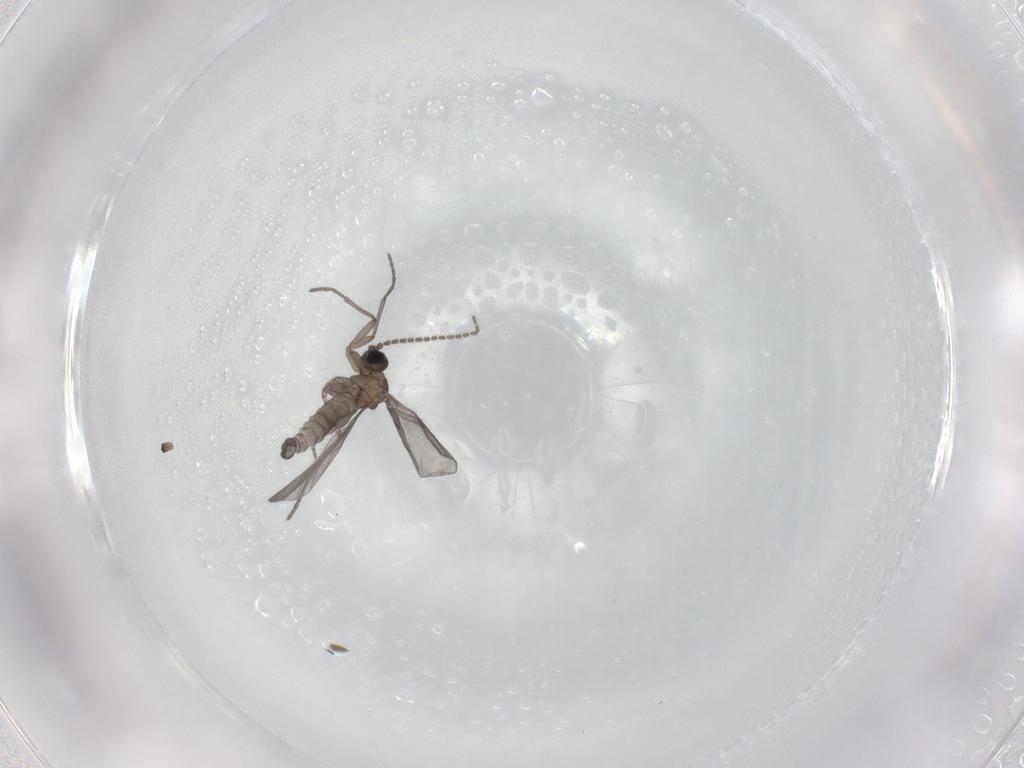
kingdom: Animalia
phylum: Arthropoda
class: Insecta
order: Diptera
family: Sciaridae
